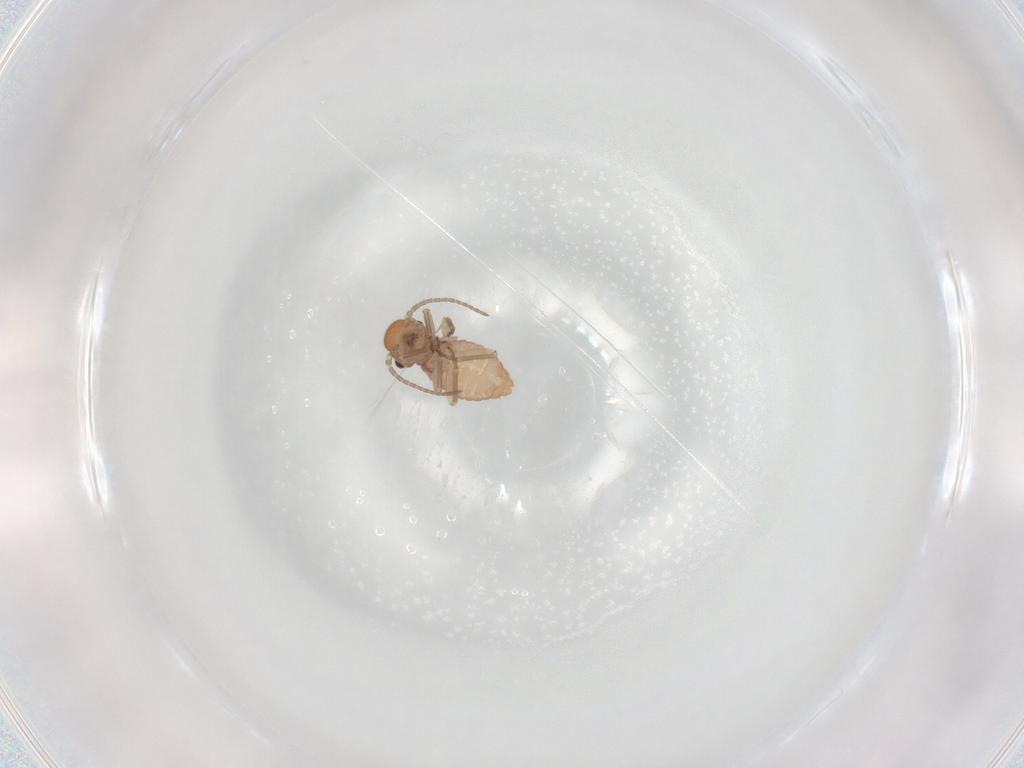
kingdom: Animalia
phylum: Arthropoda
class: Insecta
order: Psocodea
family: Caeciliusidae
